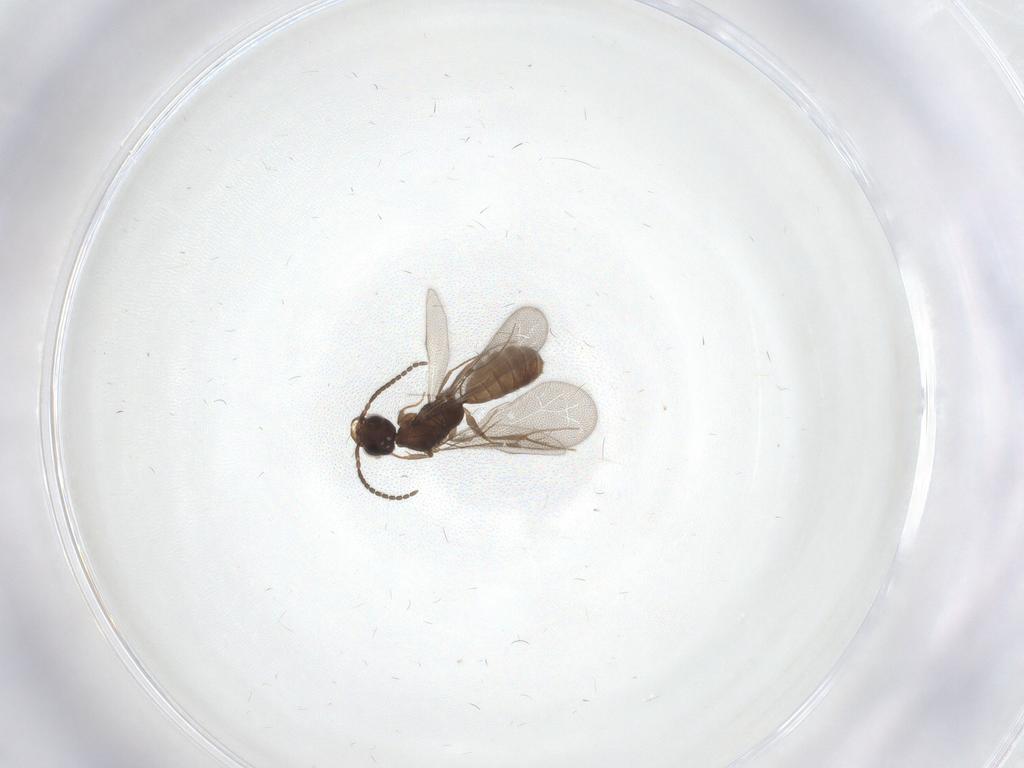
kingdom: Animalia
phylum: Arthropoda
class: Insecta
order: Hymenoptera
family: Bethylidae
